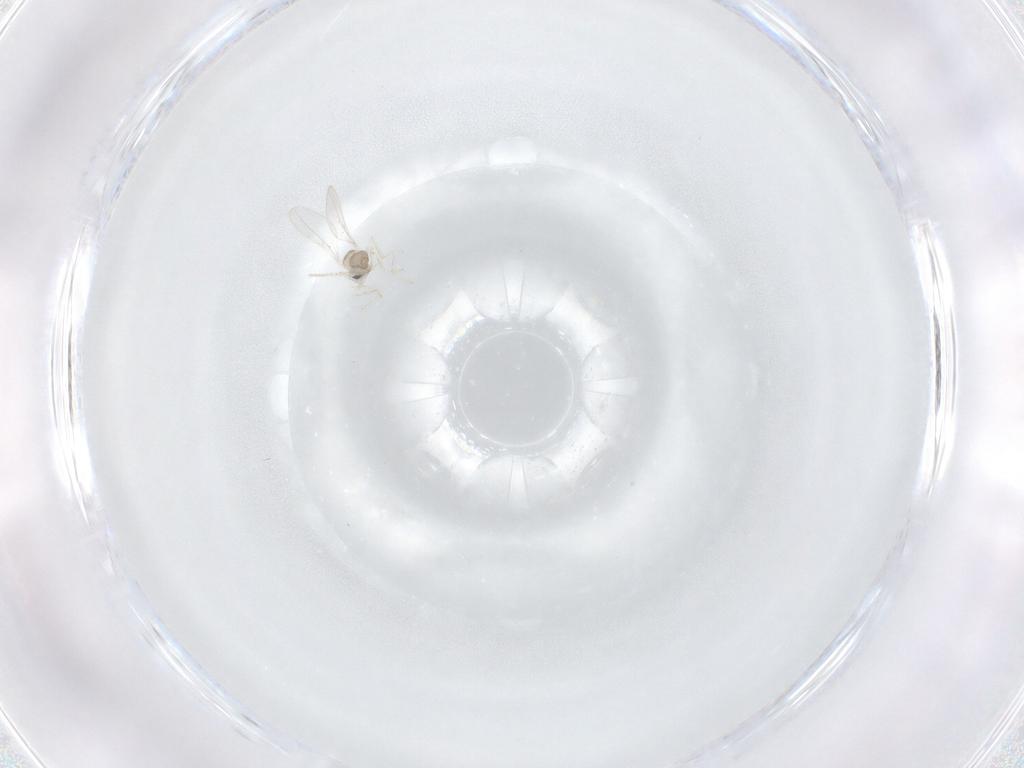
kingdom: Animalia
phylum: Arthropoda
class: Insecta
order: Diptera
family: Cecidomyiidae
